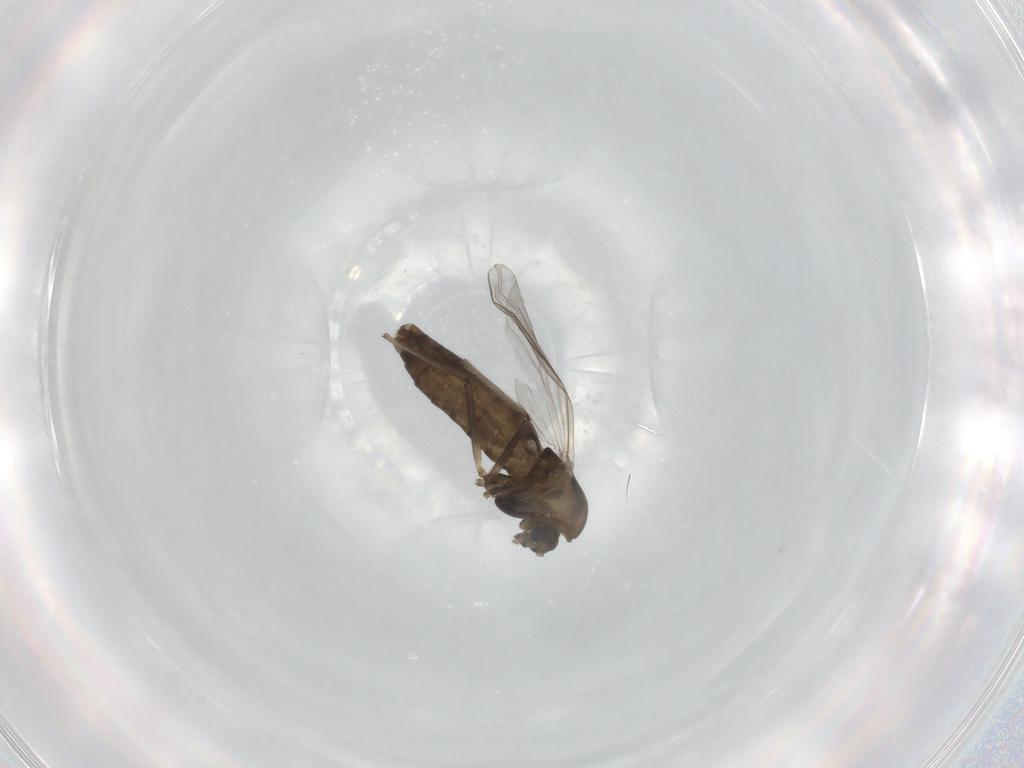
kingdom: Animalia
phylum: Arthropoda
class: Insecta
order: Diptera
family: Chironomidae
